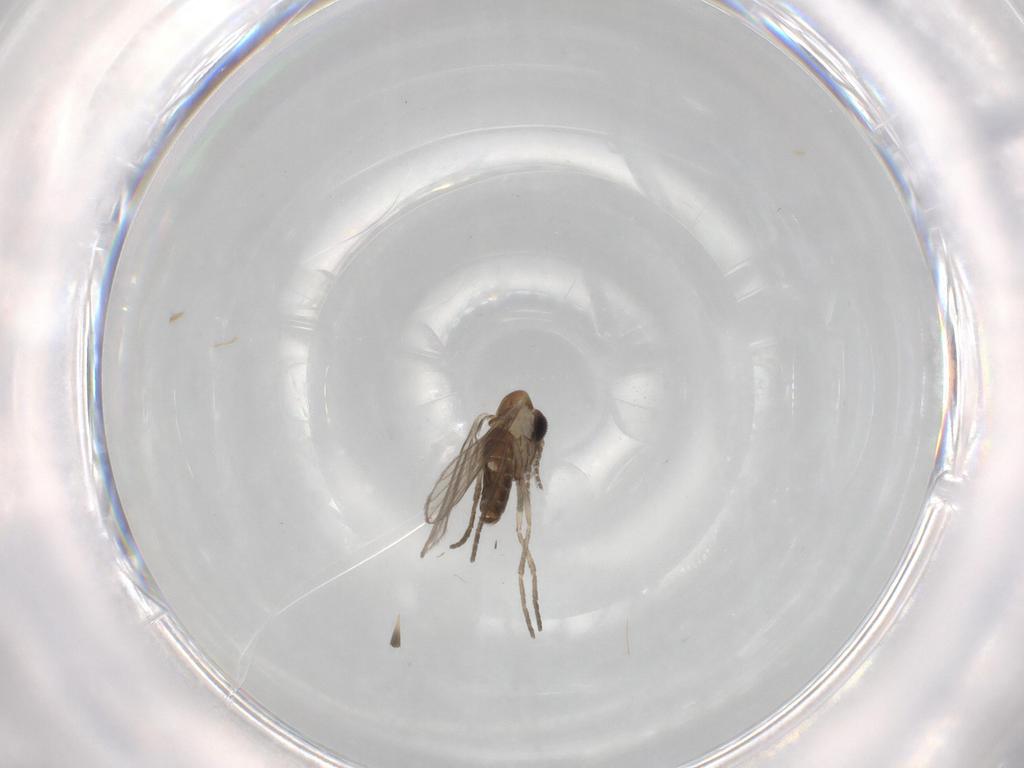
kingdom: Animalia
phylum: Arthropoda
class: Insecta
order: Diptera
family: Psychodidae
